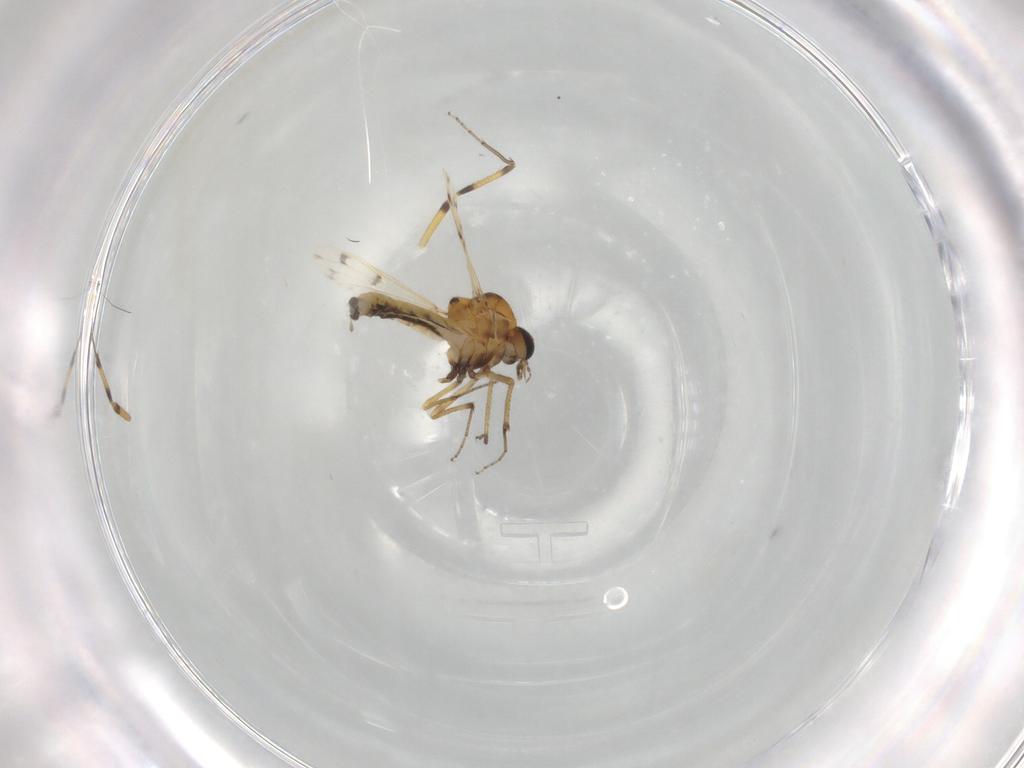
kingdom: Animalia
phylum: Arthropoda
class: Insecta
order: Diptera
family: Ceratopogonidae
